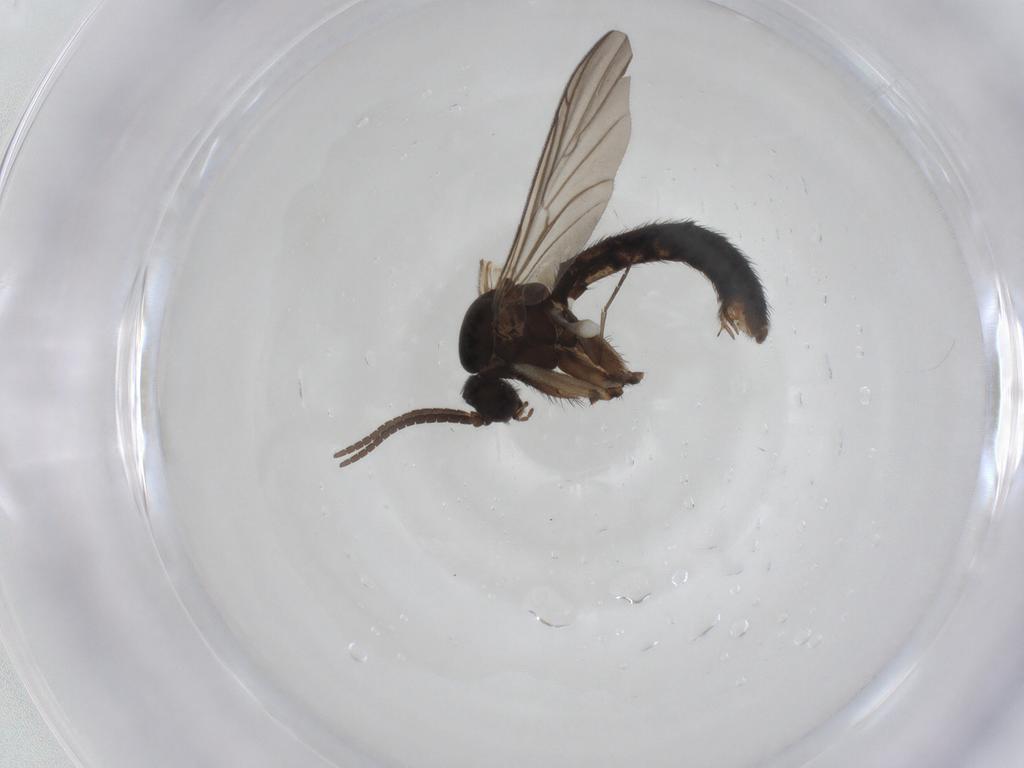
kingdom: Animalia
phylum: Arthropoda
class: Insecta
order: Diptera
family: Keroplatidae
